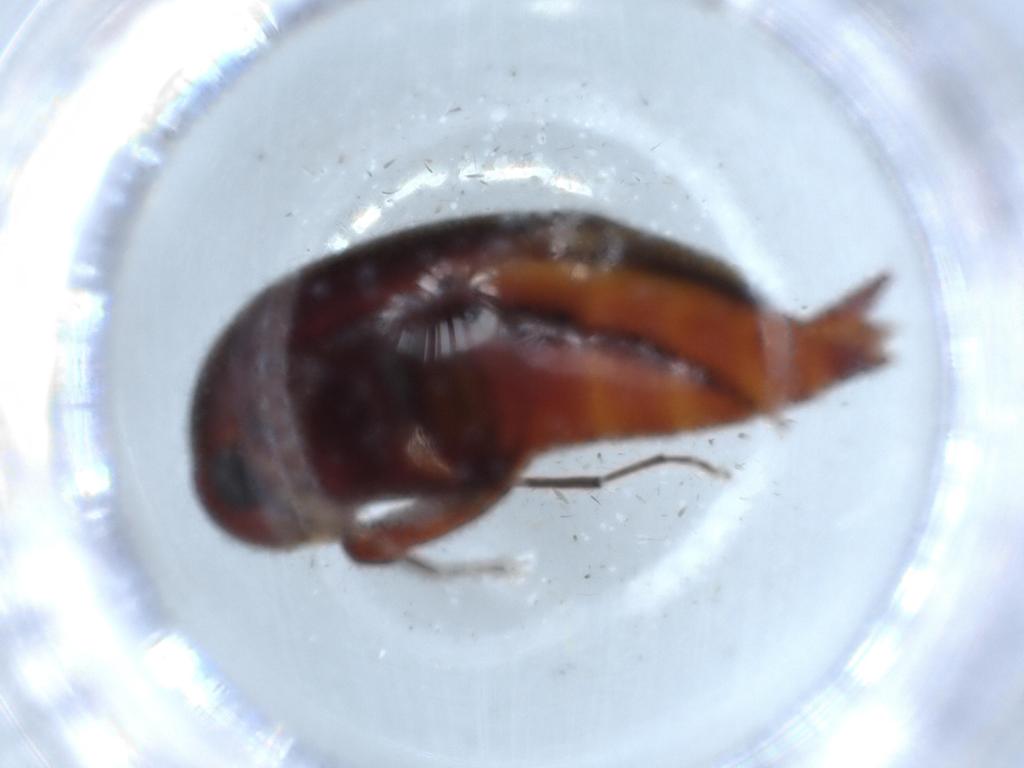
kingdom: Animalia
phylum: Arthropoda
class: Insecta
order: Coleoptera
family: Mordellidae
